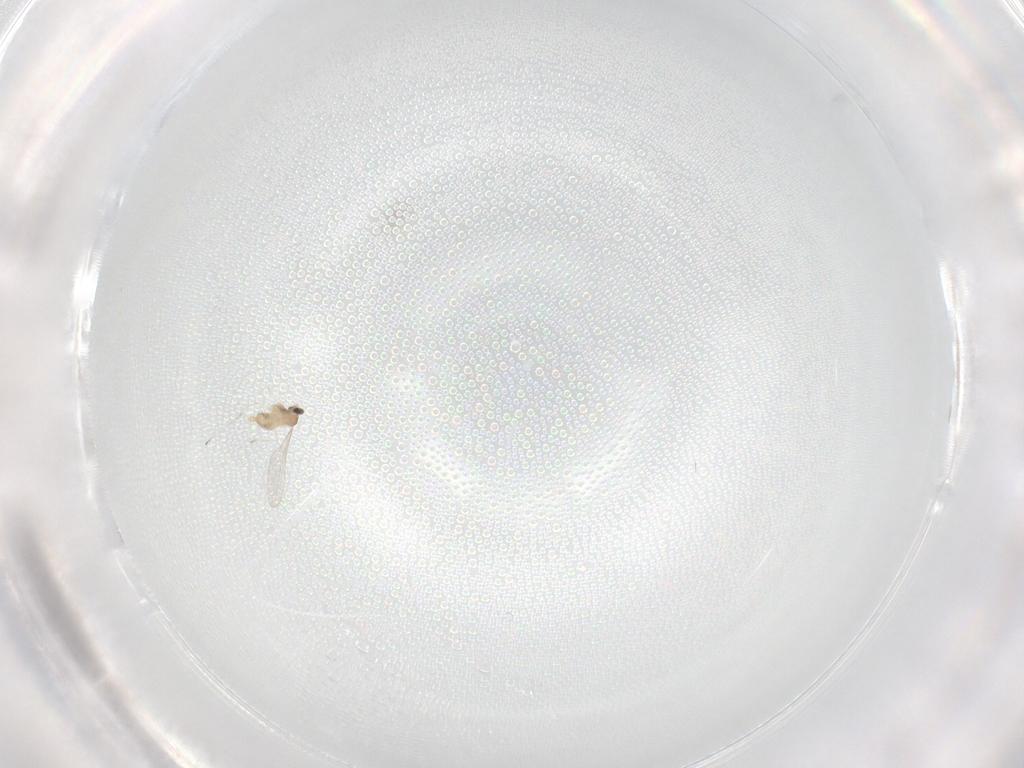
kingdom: Animalia
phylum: Arthropoda
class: Insecta
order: Diptera
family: Cecidomyiidae
